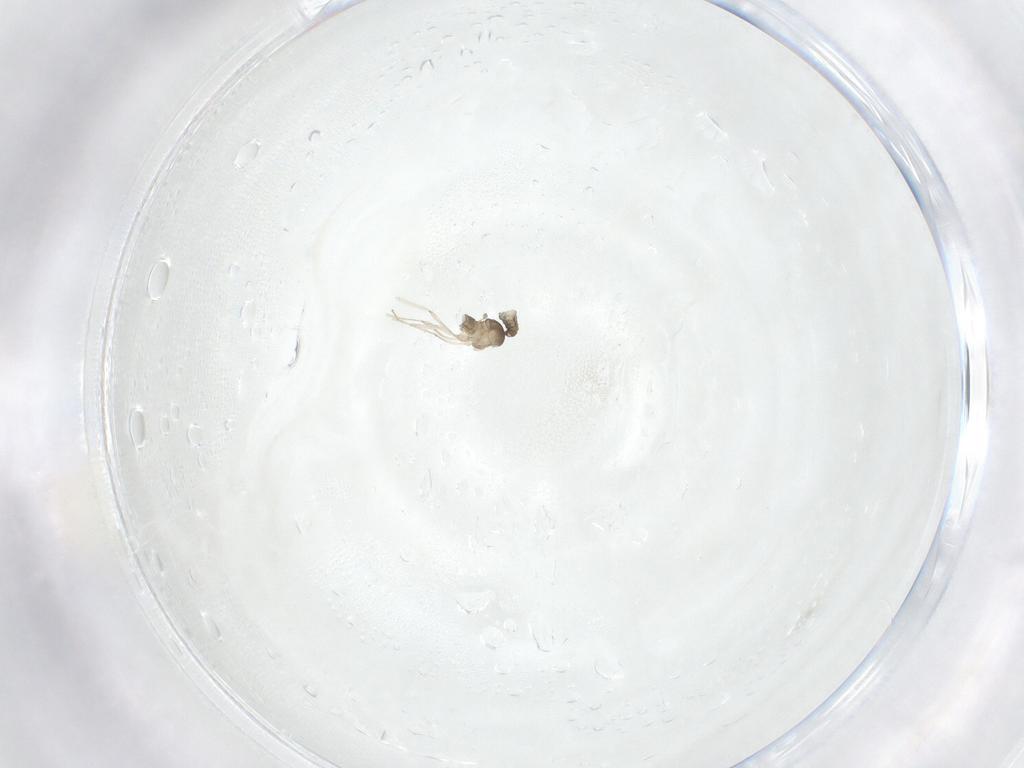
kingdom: Animalia
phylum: Arthropoda
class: Insecta
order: Diptera
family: Cecidomyiidae
